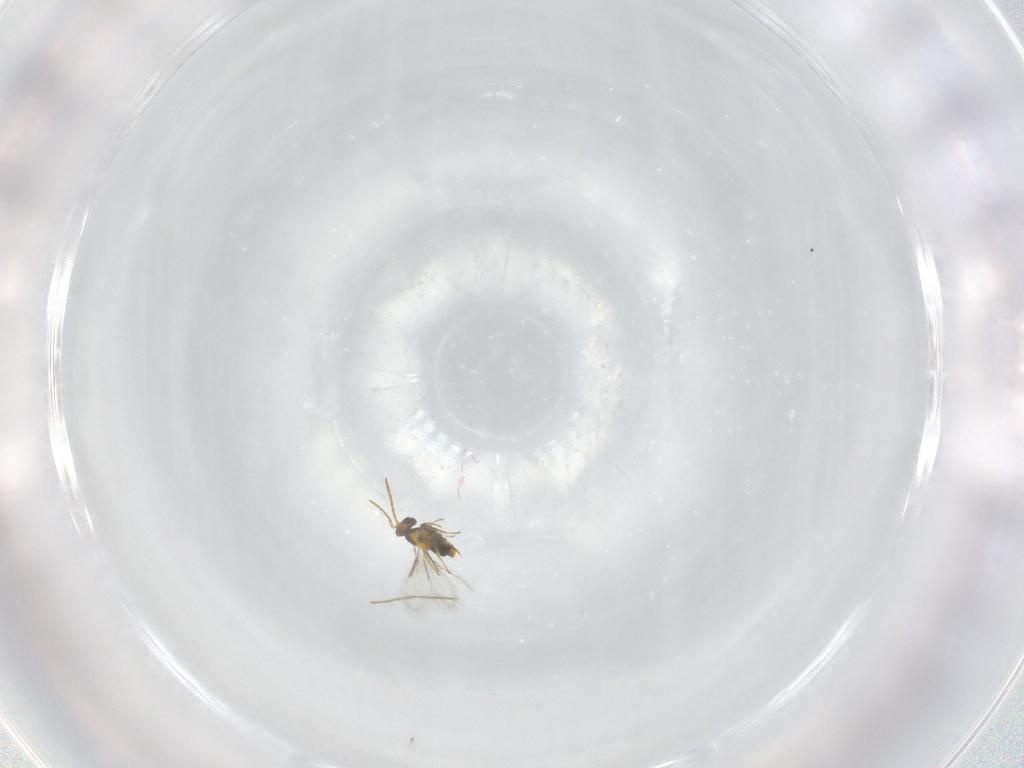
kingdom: Animalia
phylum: Arthropoda
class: Insecta
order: Hymenoptera
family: Aphelinidae
